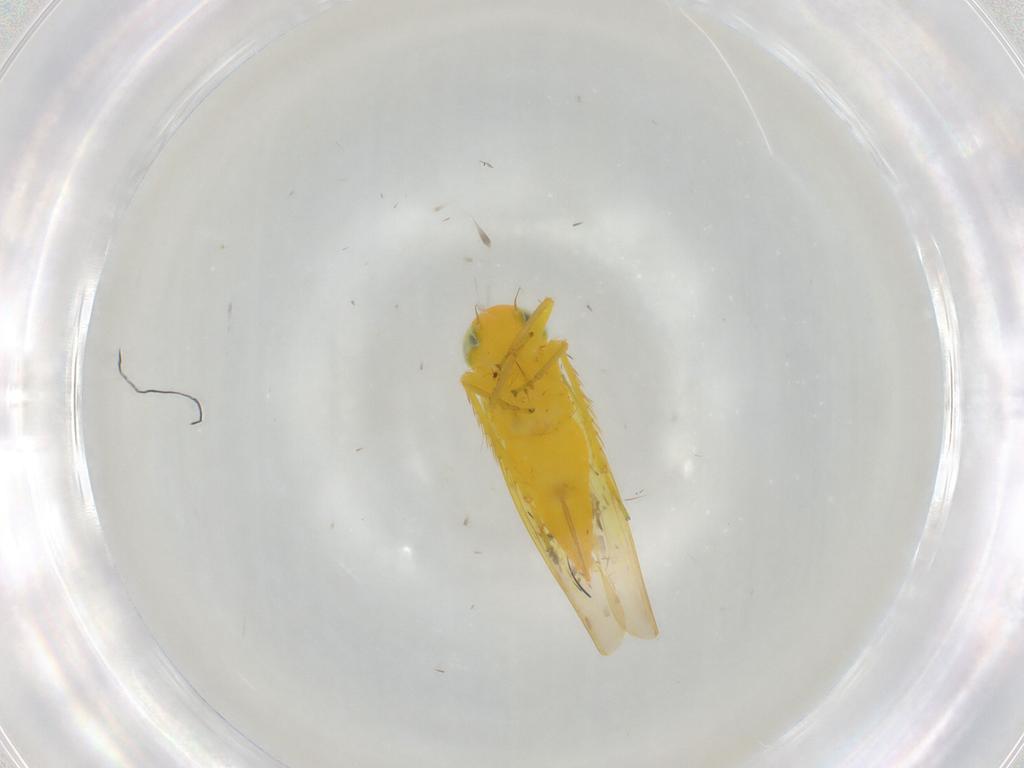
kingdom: Animalia
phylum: Arthropoda
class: Insecta
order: Hemiptera
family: Cicadellidae
